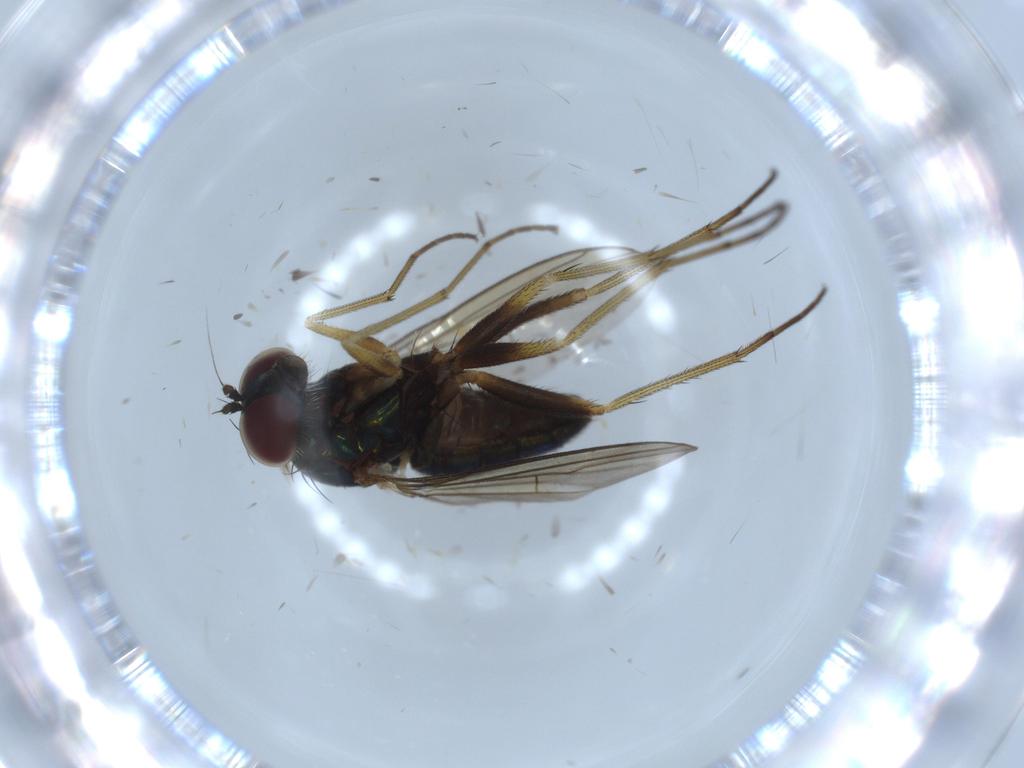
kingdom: Animalia
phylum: Arthropoda
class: Insecta
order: Diptera
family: Dolichopodidae
